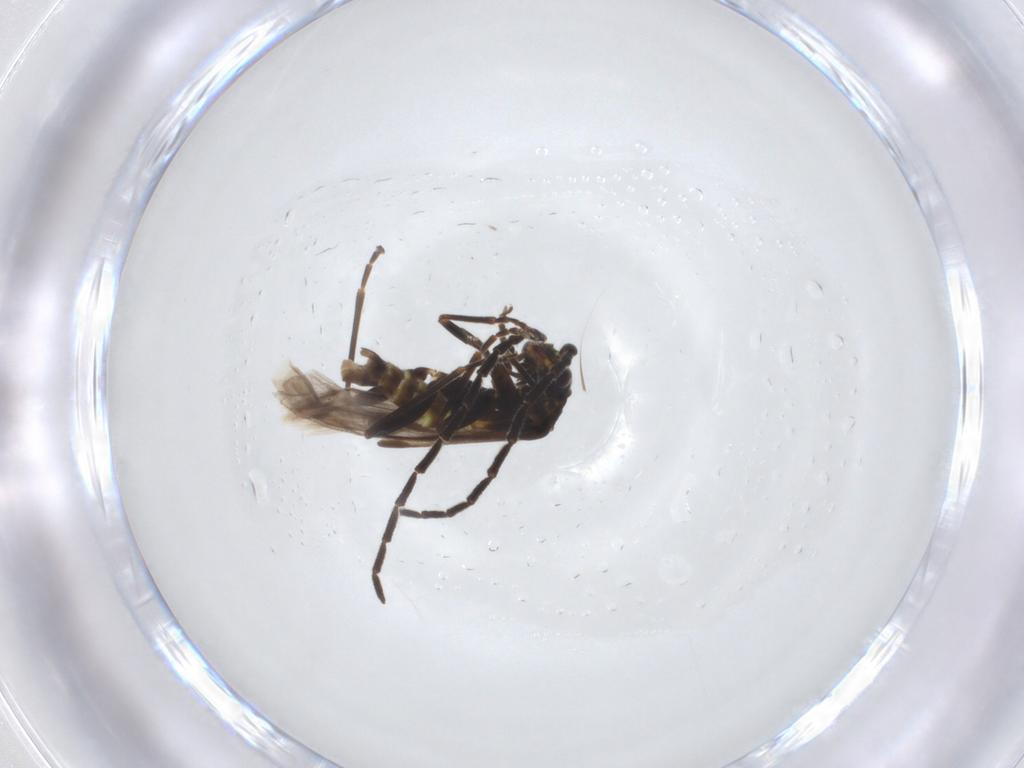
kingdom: Animalia
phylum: Arthropoda
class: Insecta
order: Coleoptera
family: Cantharidae
